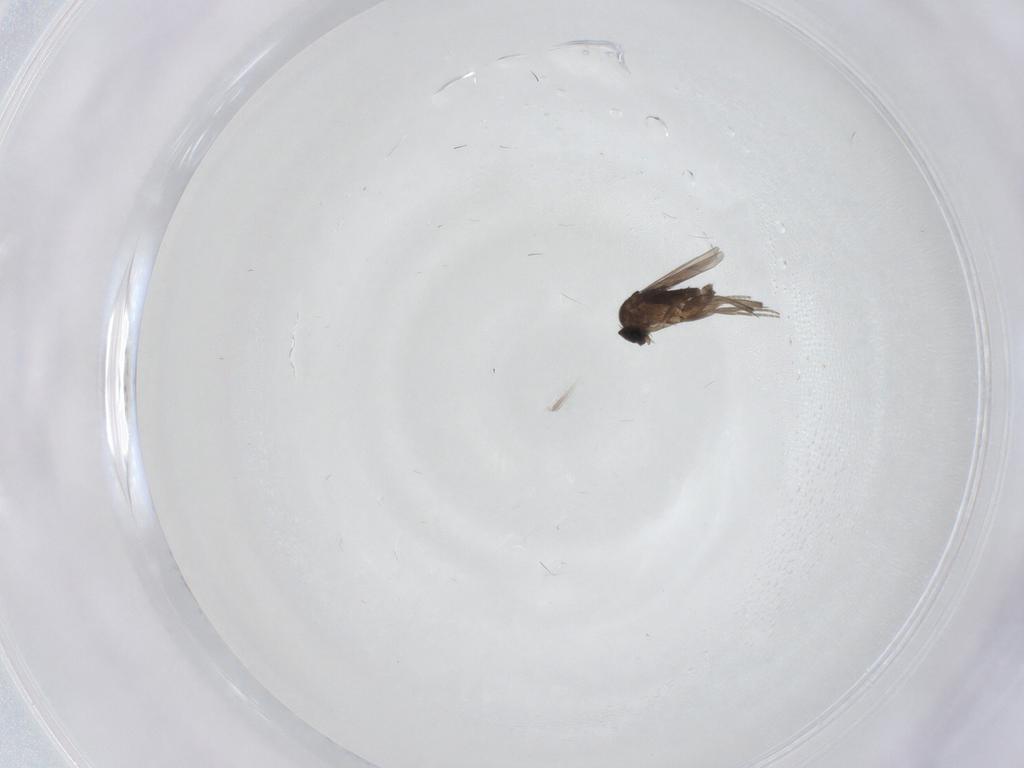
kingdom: Animalia
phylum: Arthropoda
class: Insecta
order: Diptera
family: Phoridae
